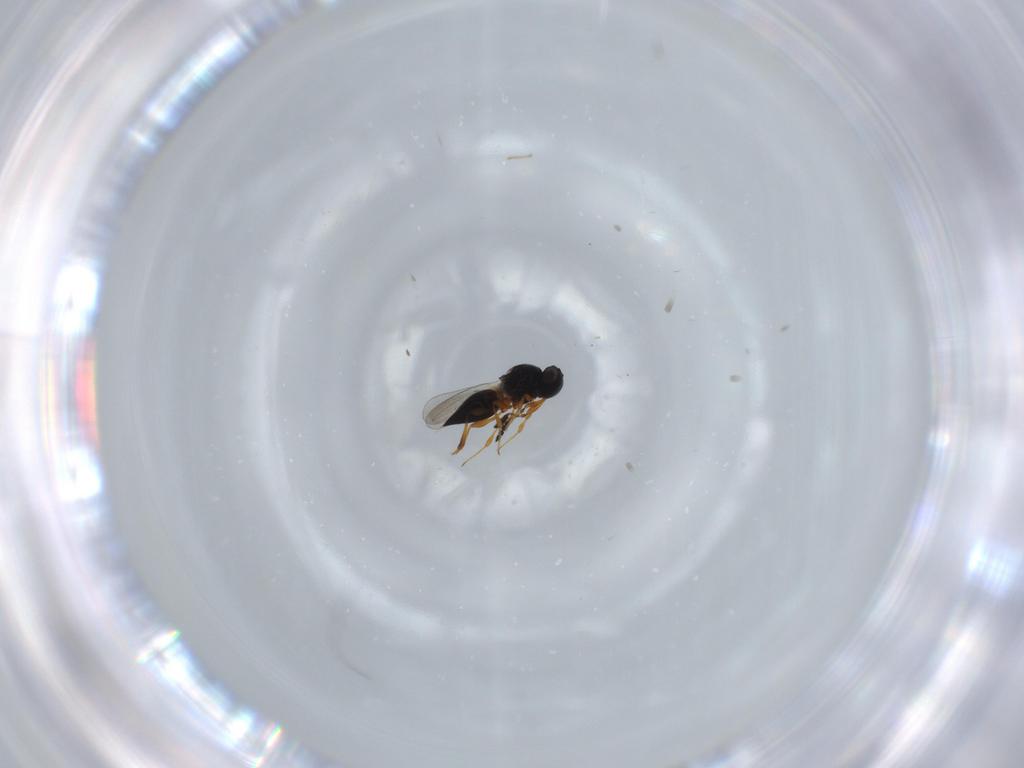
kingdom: Animalia
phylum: Arthropoda
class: Insecta
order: Hymenoptera
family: Platygastridae
